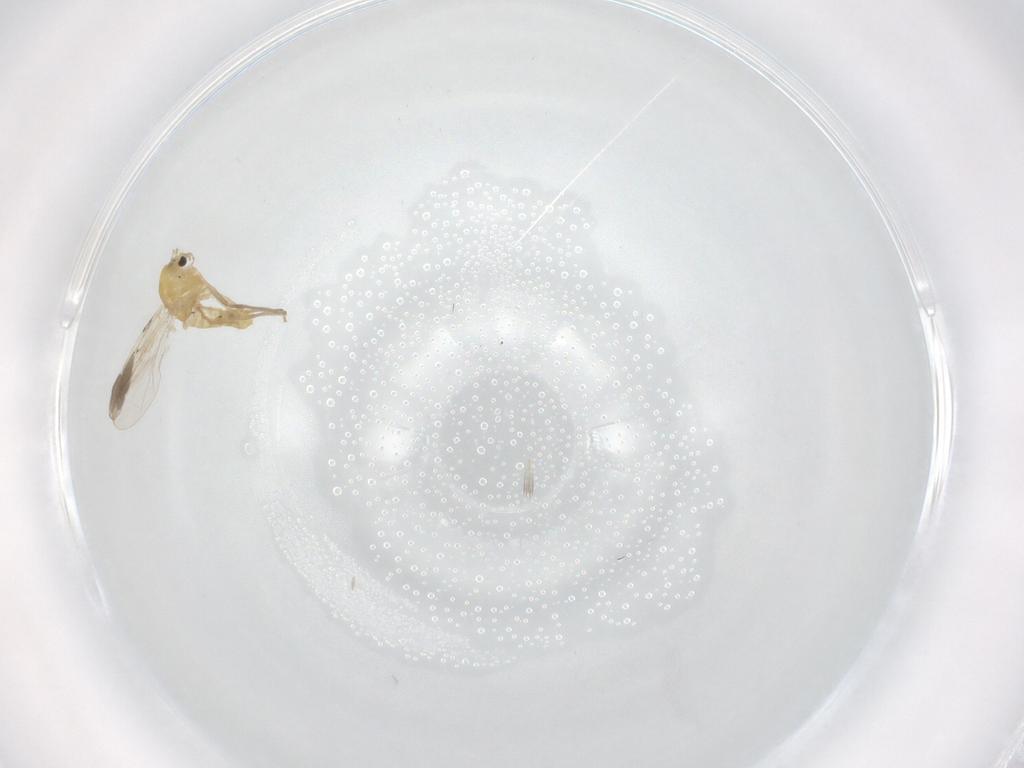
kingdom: Animalia
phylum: Arthropoda
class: Insecta
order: Diptera
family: Chironomidae
